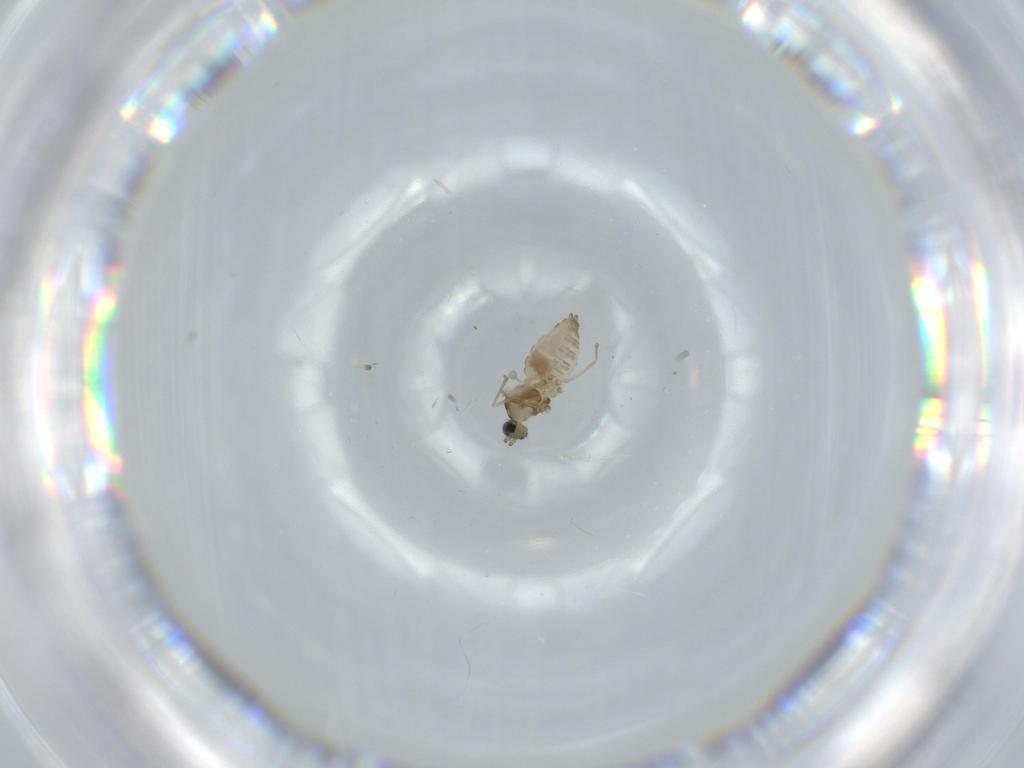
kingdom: Animalia
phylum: Arthropoda
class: Insecta
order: Diptera
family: Cecidomyiidae
